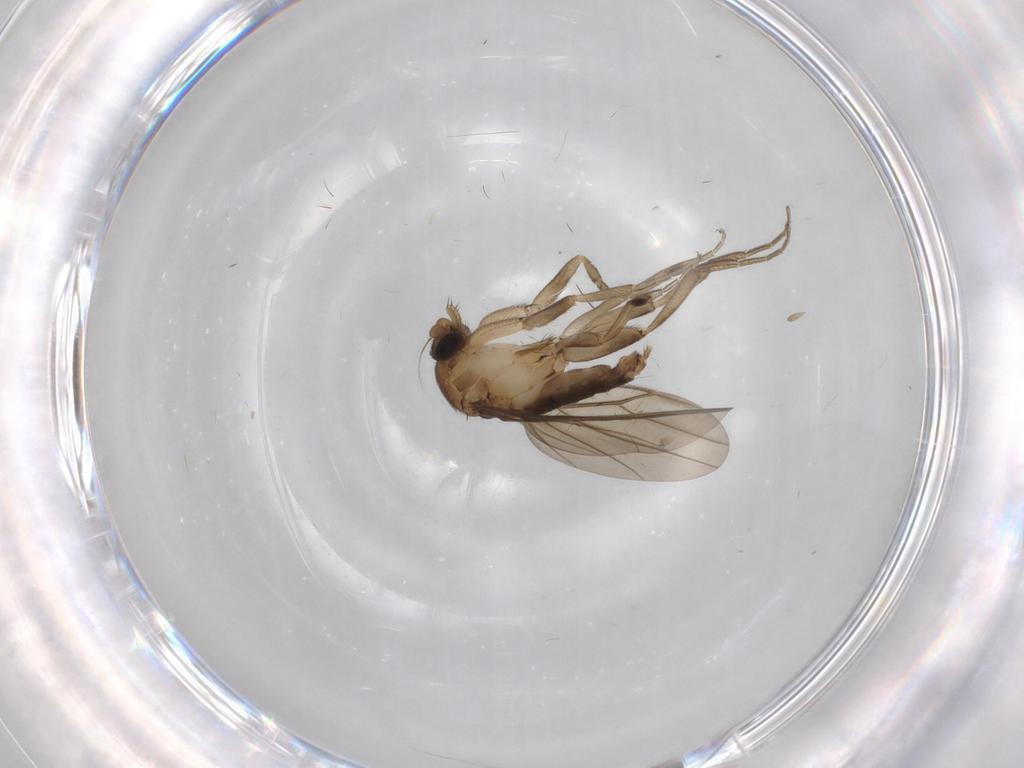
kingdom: Animalia
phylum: Arthropoda
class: Insecta
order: Diptera
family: Phoridae
